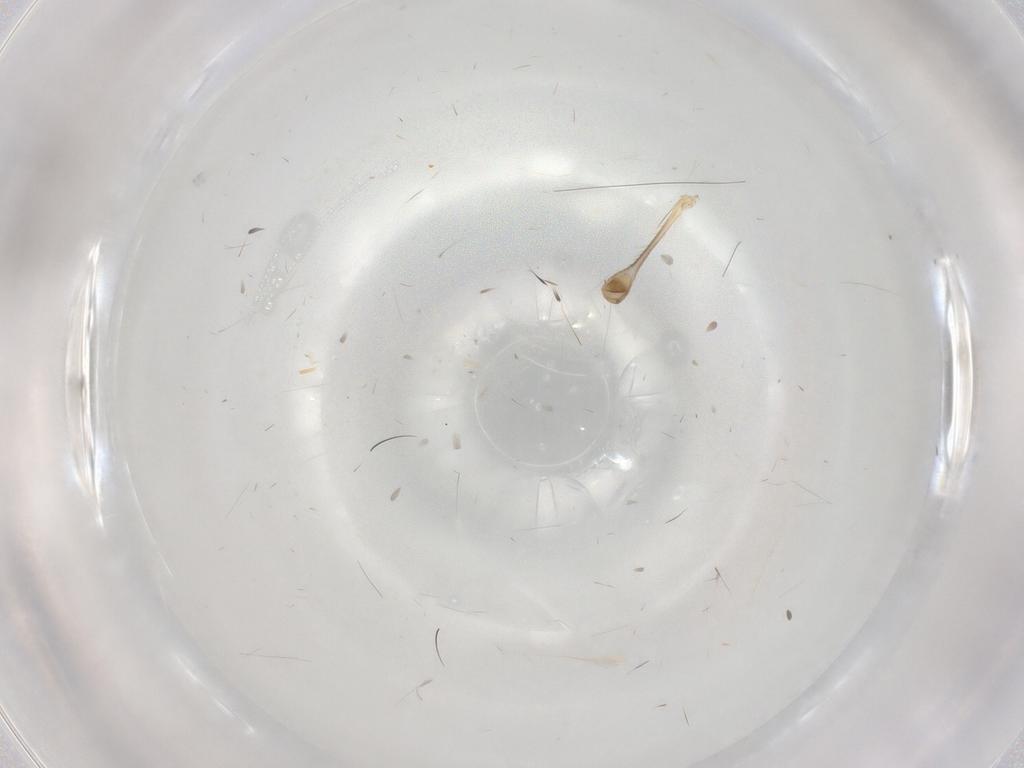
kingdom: Animalia
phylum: Arthropoda
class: Insecta
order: Diptera
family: Limoniidae
